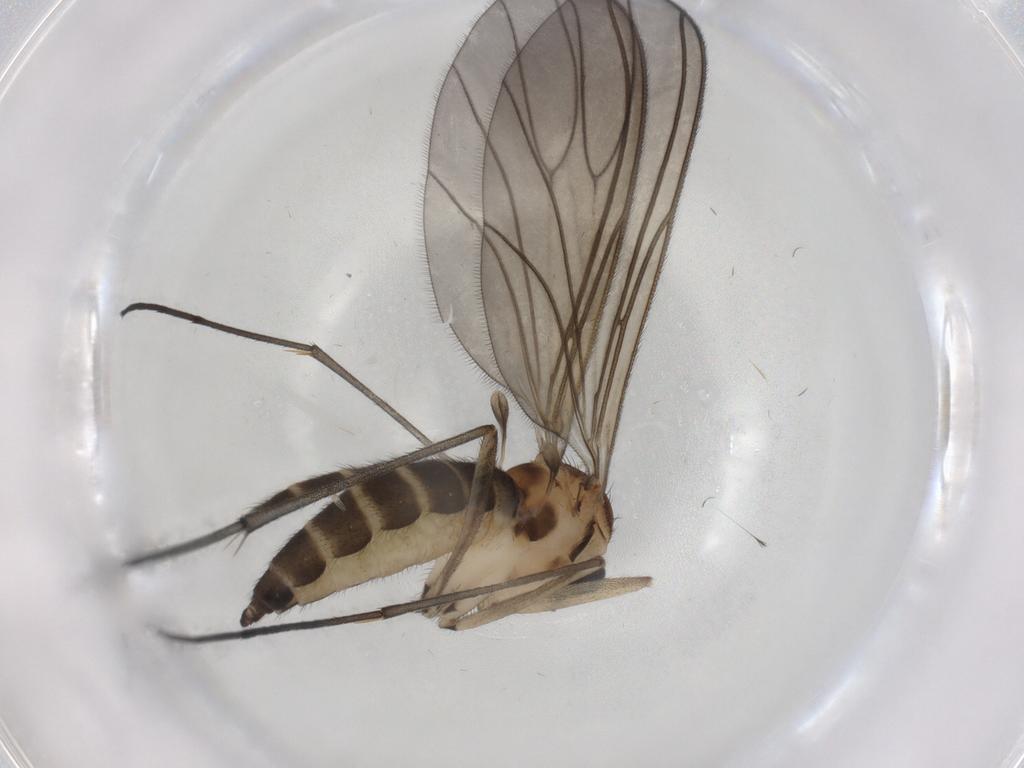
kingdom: Animalia
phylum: Arthropoda
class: Insecta
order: Diptera
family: Sciaridae
